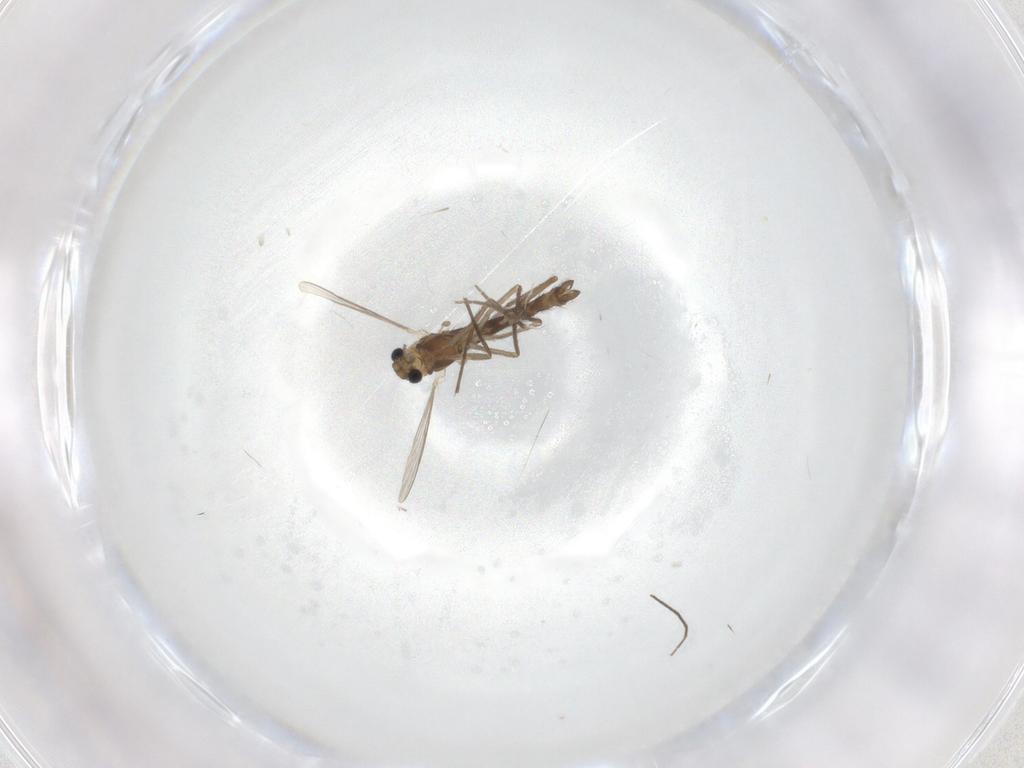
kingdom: Animalia
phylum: Arthropoda
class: Insecta
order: Diptera
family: Chironomidae
